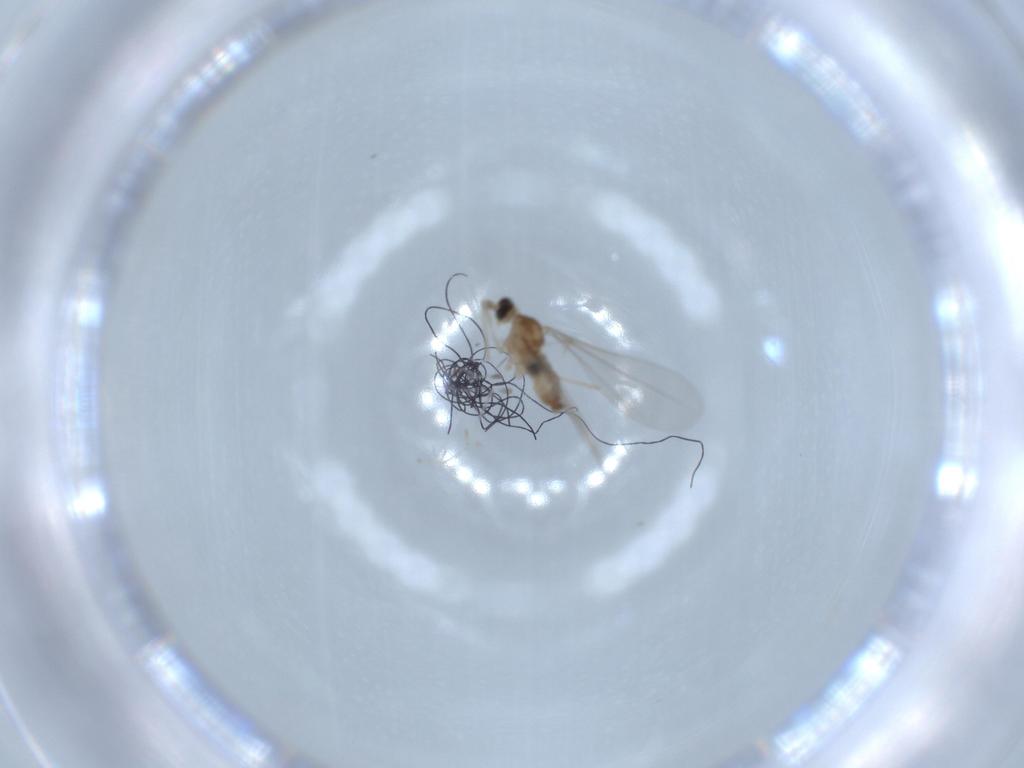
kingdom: Animalia
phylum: Arthropoda
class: Insecta
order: Diptera
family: Cecidomyiidae
